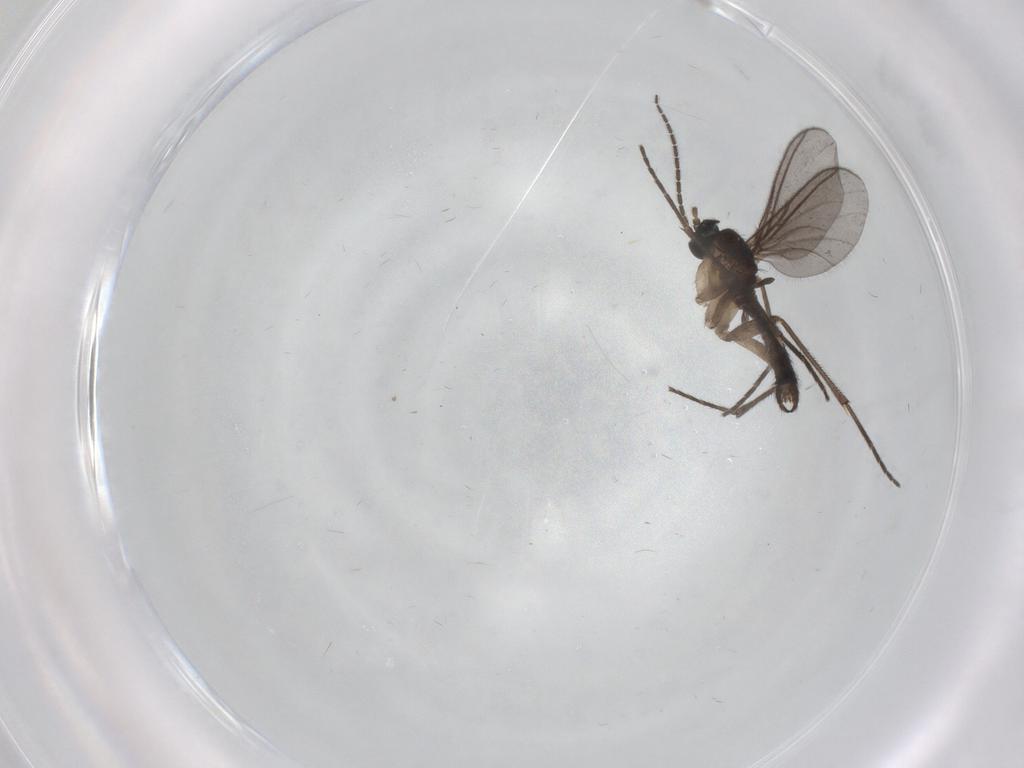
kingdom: Animalia
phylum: Arthropoda
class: Insecta
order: Diptera
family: Sciaridae
